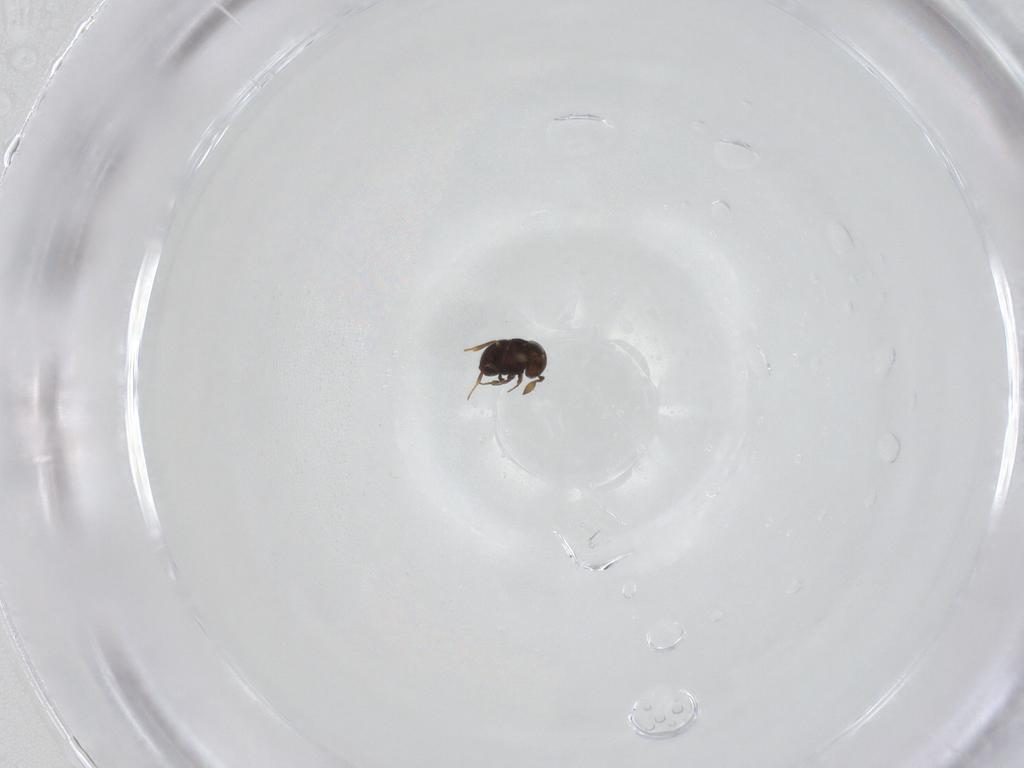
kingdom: Animalia
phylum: Arthropoda
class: Insecta
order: Hymenoptera
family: Scelionidae
